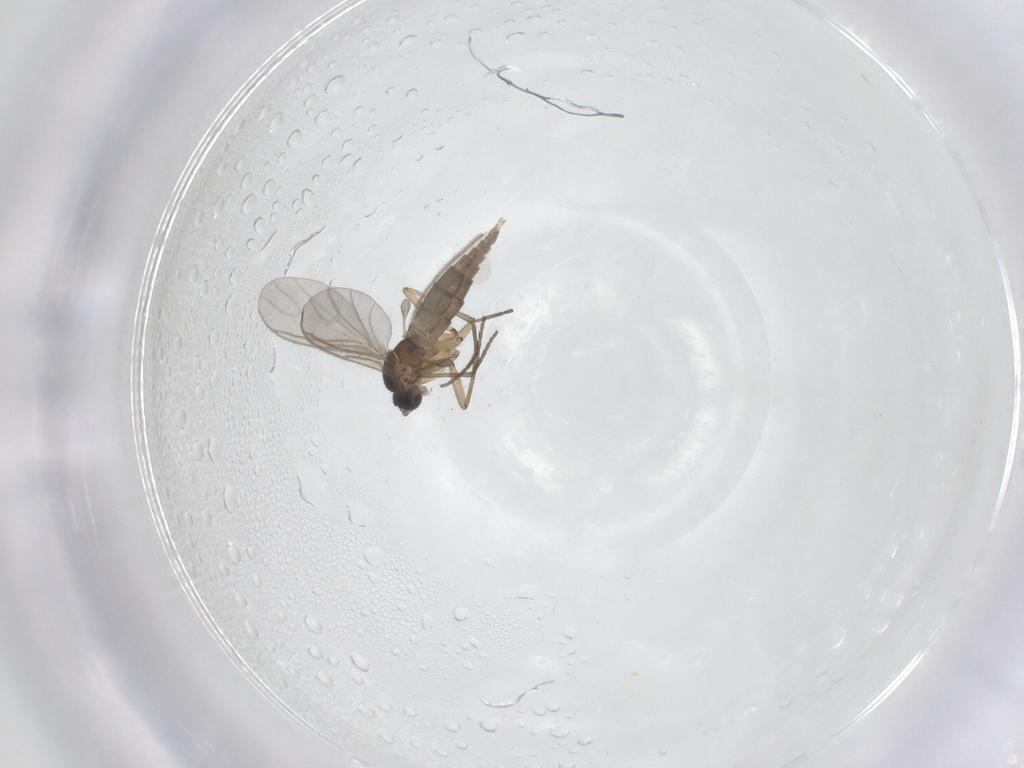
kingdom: Animalia
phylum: Arthropoda
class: Insecta
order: Diptera
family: Sciaridae
